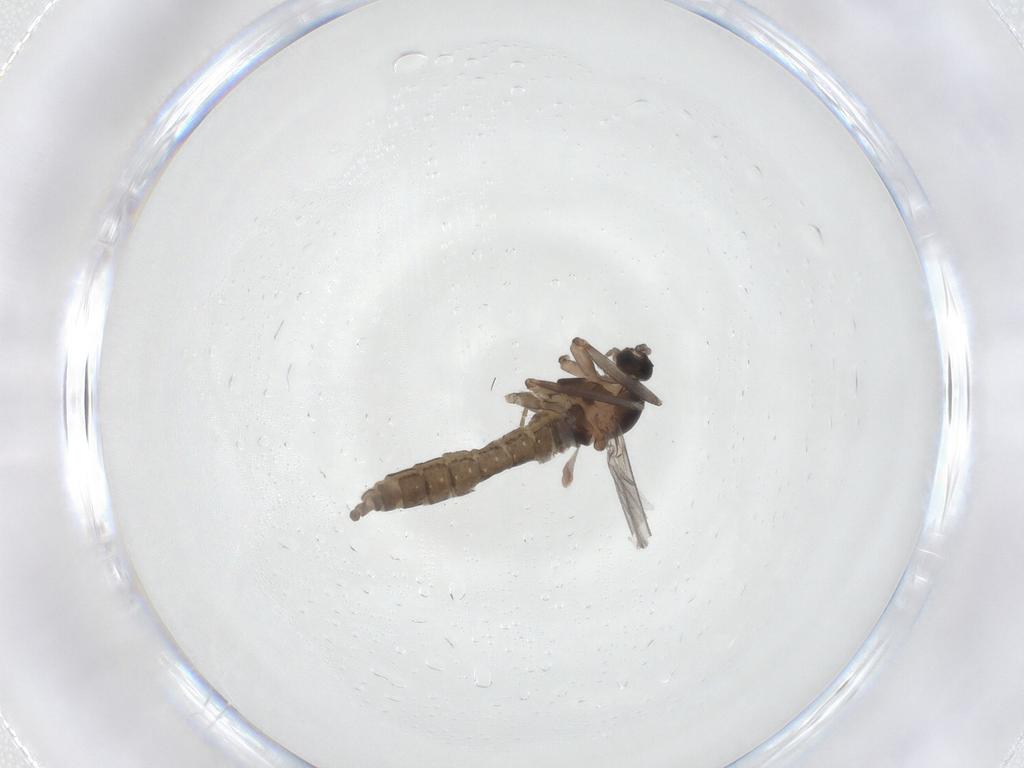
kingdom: Animalia
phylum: Arthropoda
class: Insecta
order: Diptera
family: Cecidomyiidae
